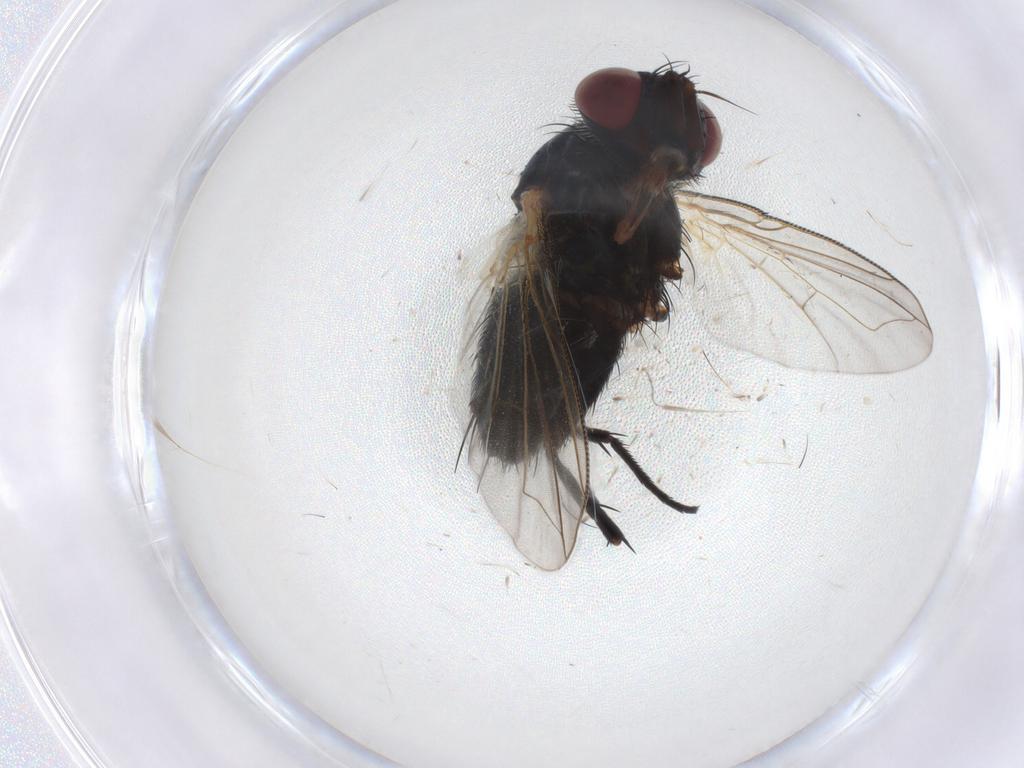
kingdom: Animalia
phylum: Arthropoda
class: Insecta
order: Diptera
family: Tachinidae
